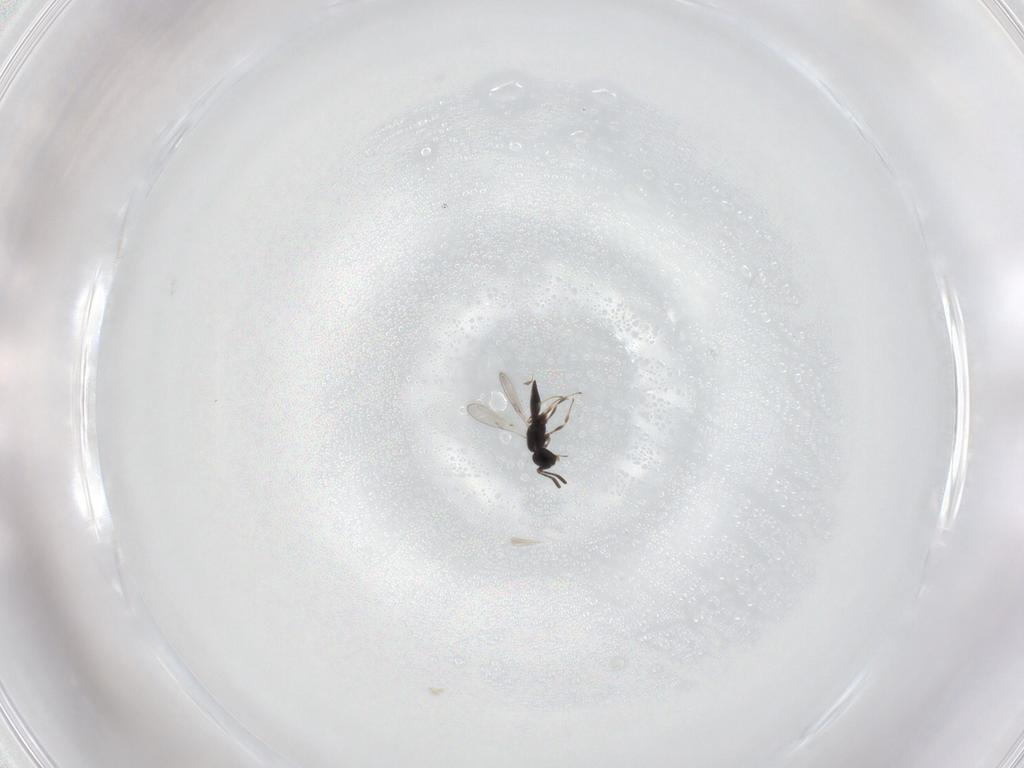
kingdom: Animalia
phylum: Arthropoda
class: Insecta
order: Hymenoptera
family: Scelionidae
